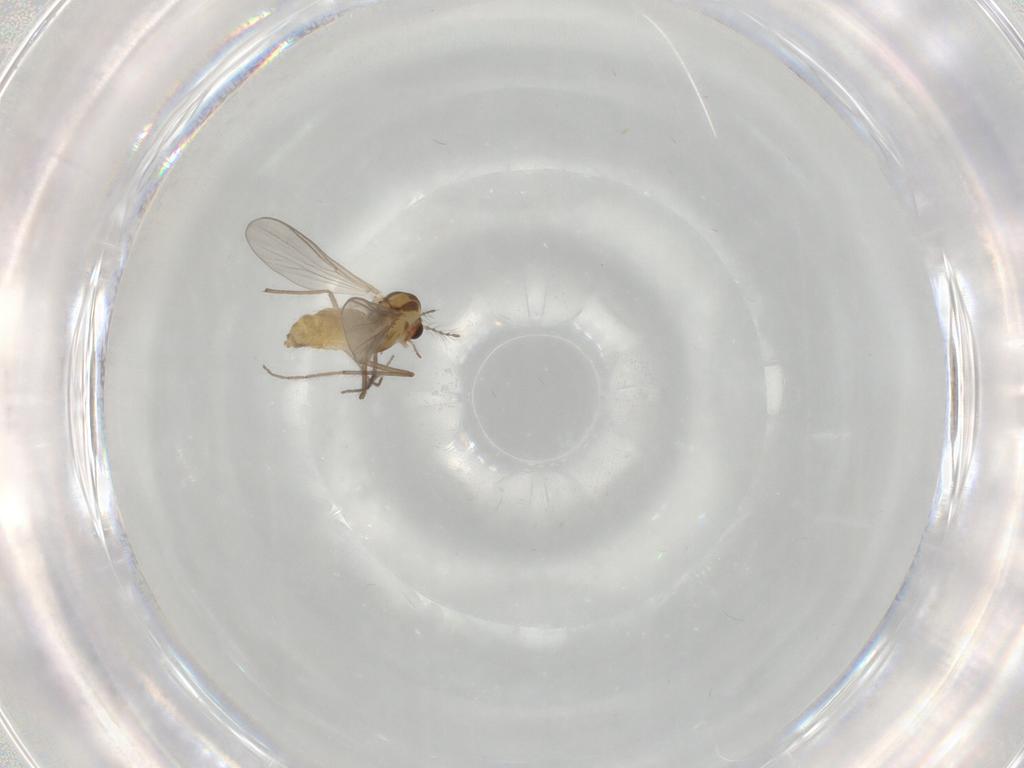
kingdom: Animalia
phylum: Arthropoda
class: Insecta
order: Diptera
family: Chironomidae
